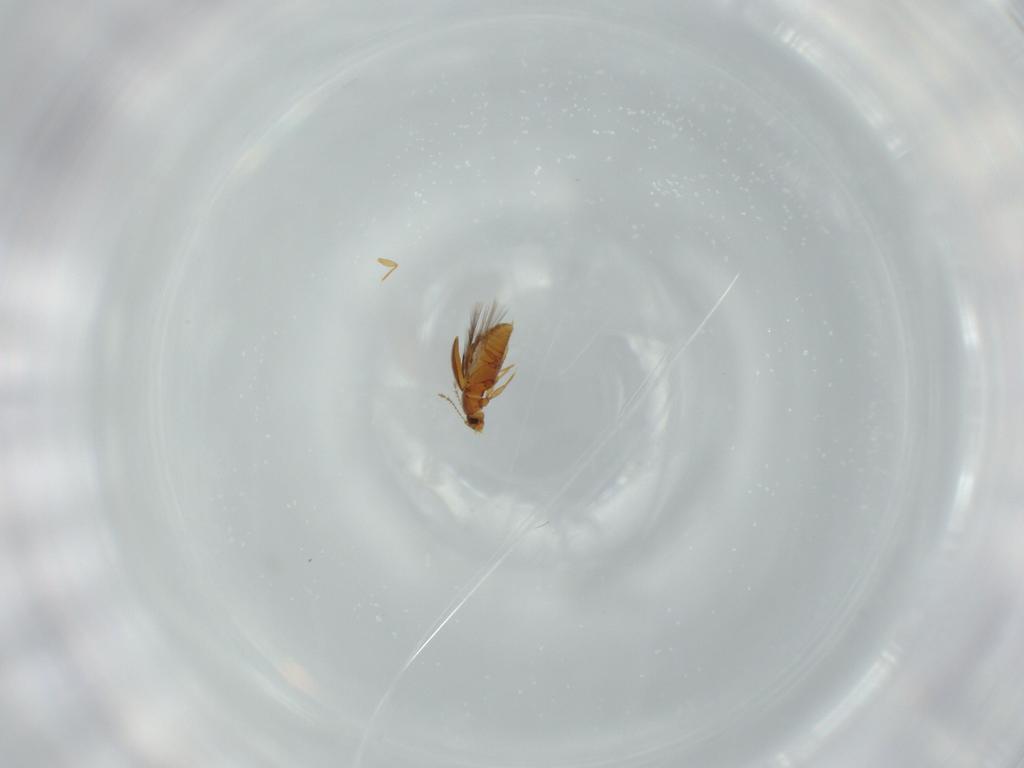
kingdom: Animalia
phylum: Arthropoda
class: Insecta
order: Coleoptera
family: Ptiliidae
